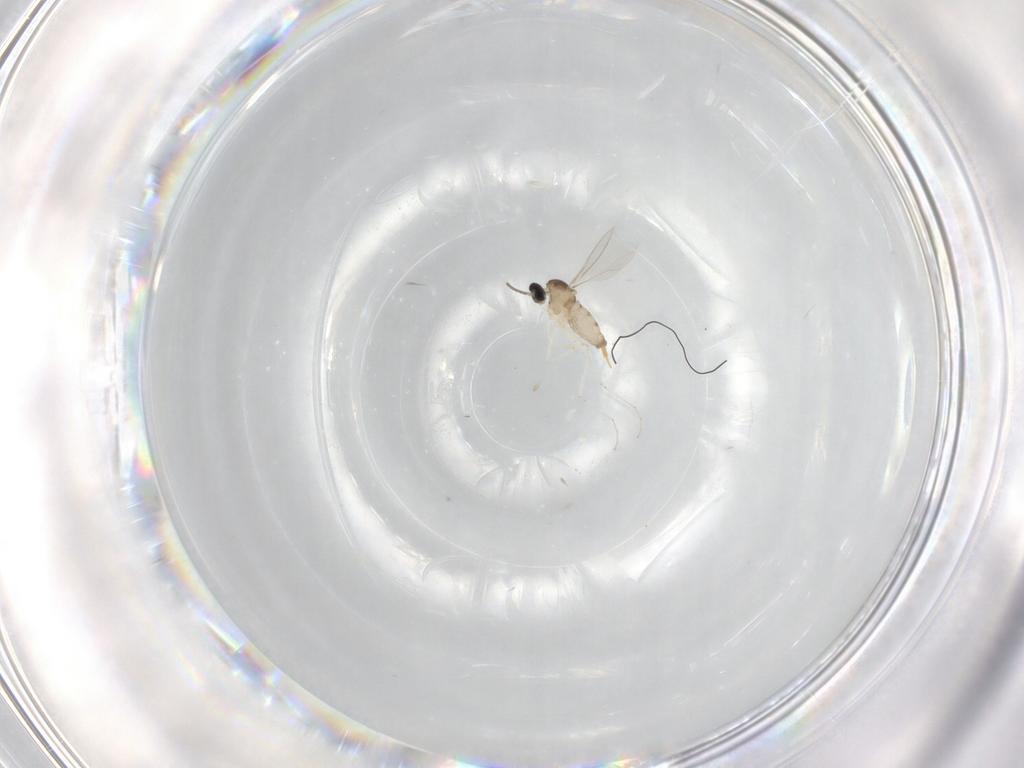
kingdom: Animalia
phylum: Arthropoda
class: Insecta
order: Diptera
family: Cecidomyiidae
